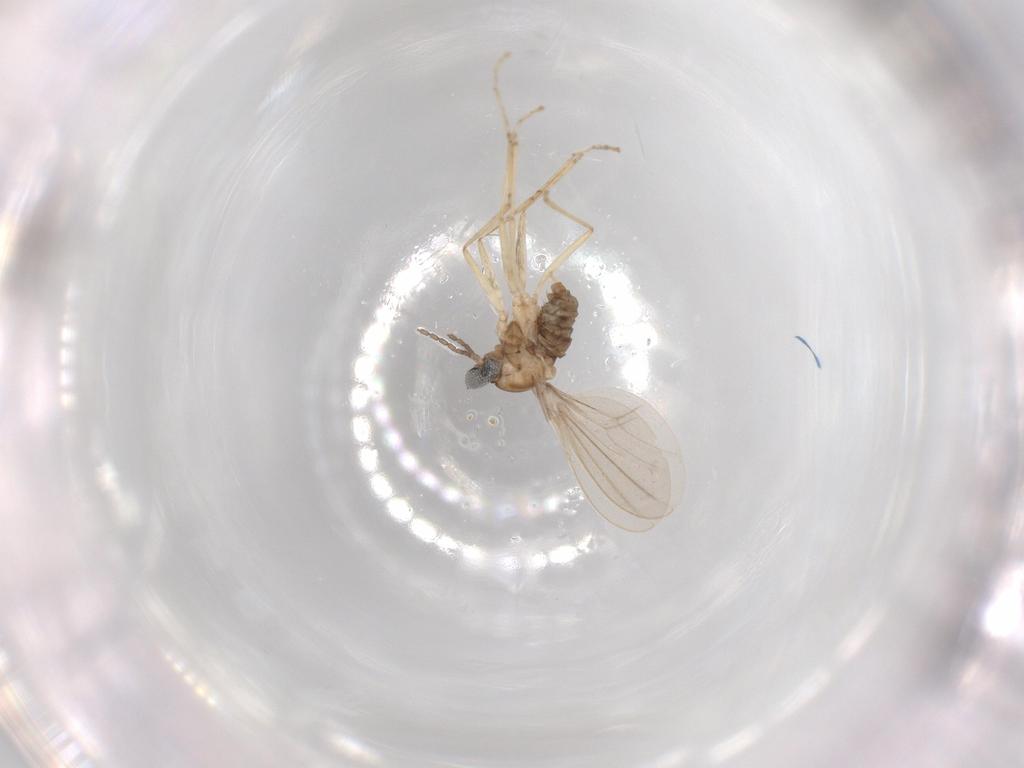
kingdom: Animalia
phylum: Arthropoda
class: Insecta
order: Diptera
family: Cecidomyiidae
